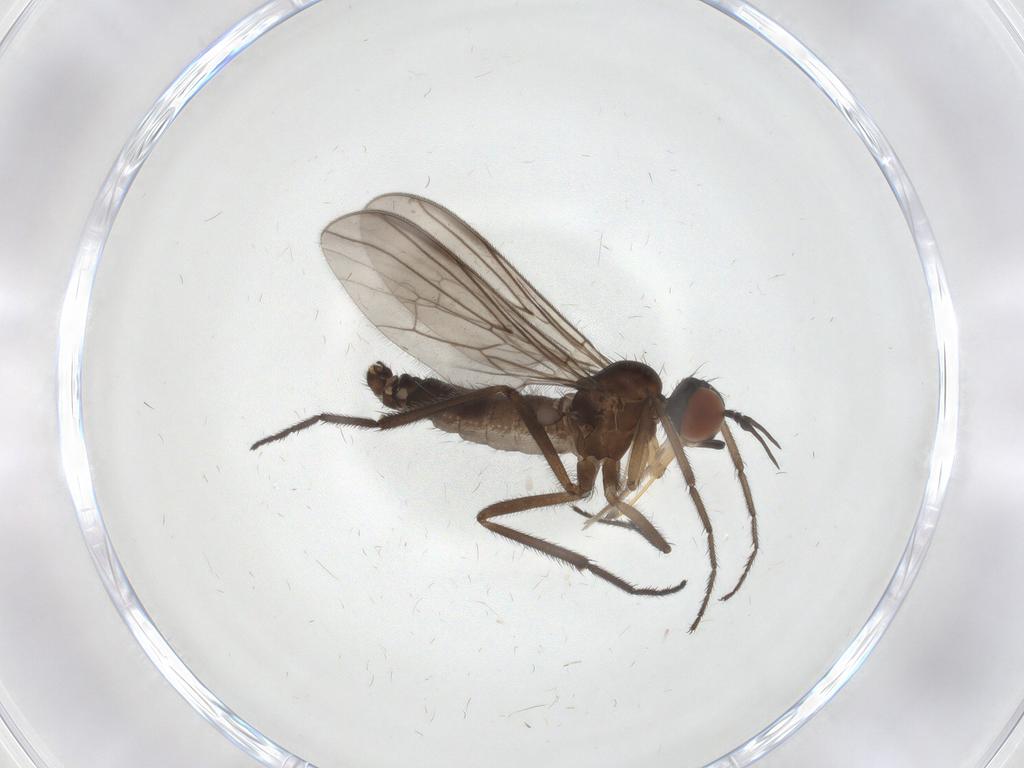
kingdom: Animalia
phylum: Arthropoda
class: Insecta
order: Diptera
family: Empididae
